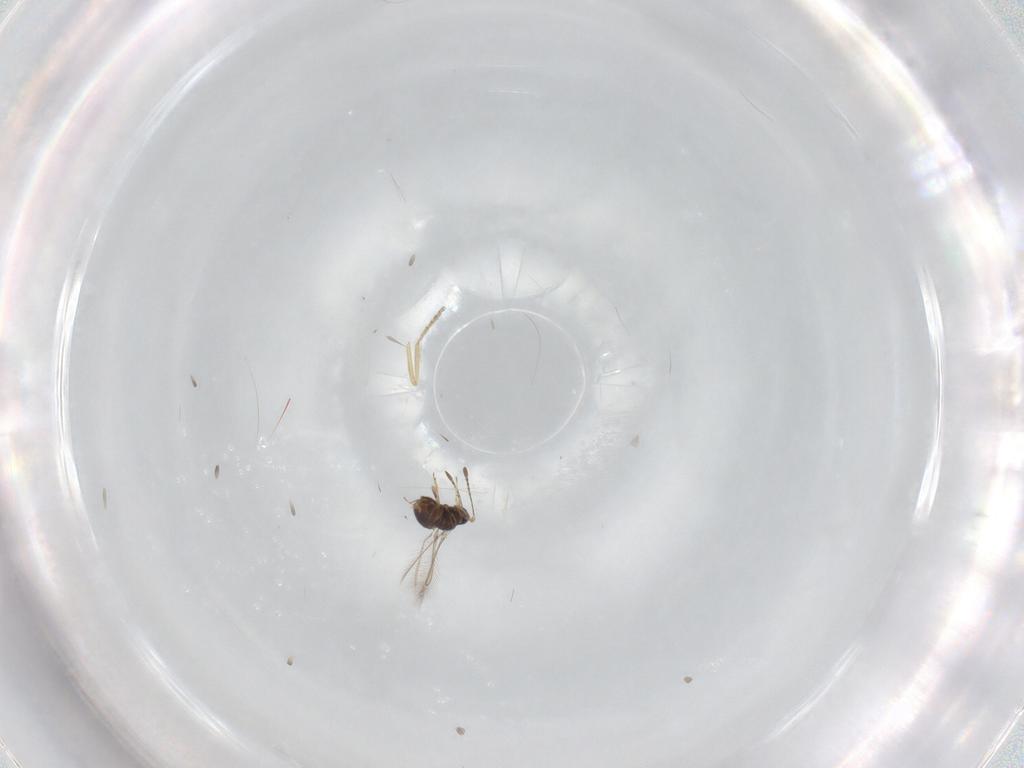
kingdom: Animalia
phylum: Arthropoda
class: Insecta
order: Hymenoptera
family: Mymaridae
